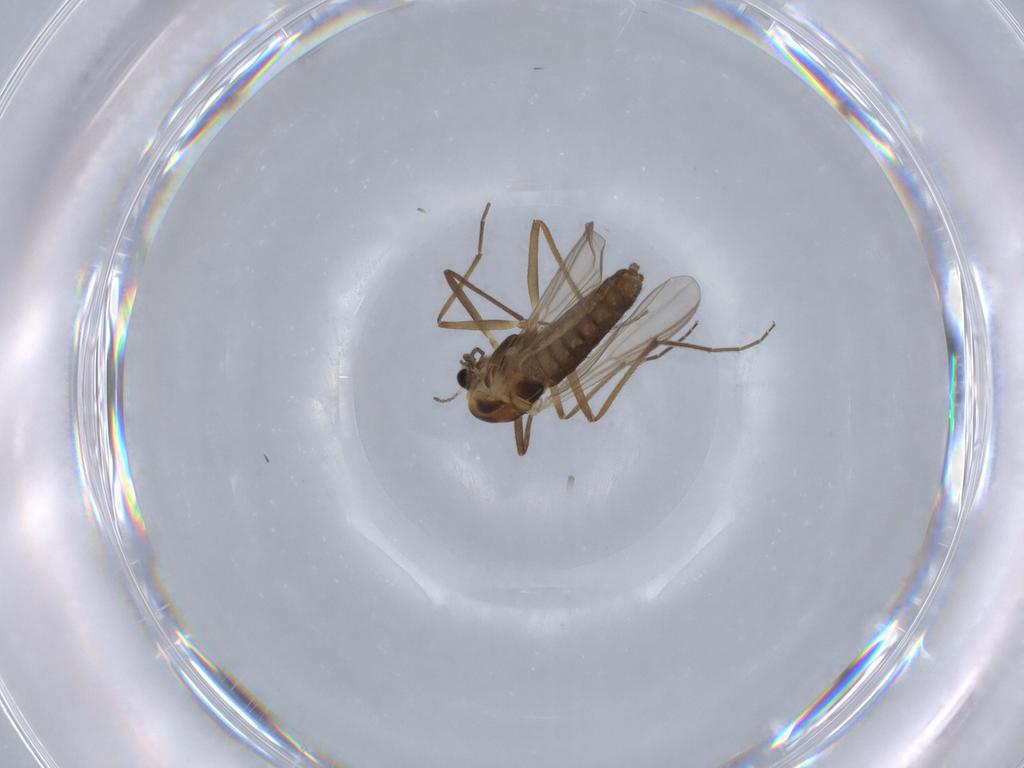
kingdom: Animalia
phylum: Arthropoda
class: Insecta
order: Diptera
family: Chironomidae
